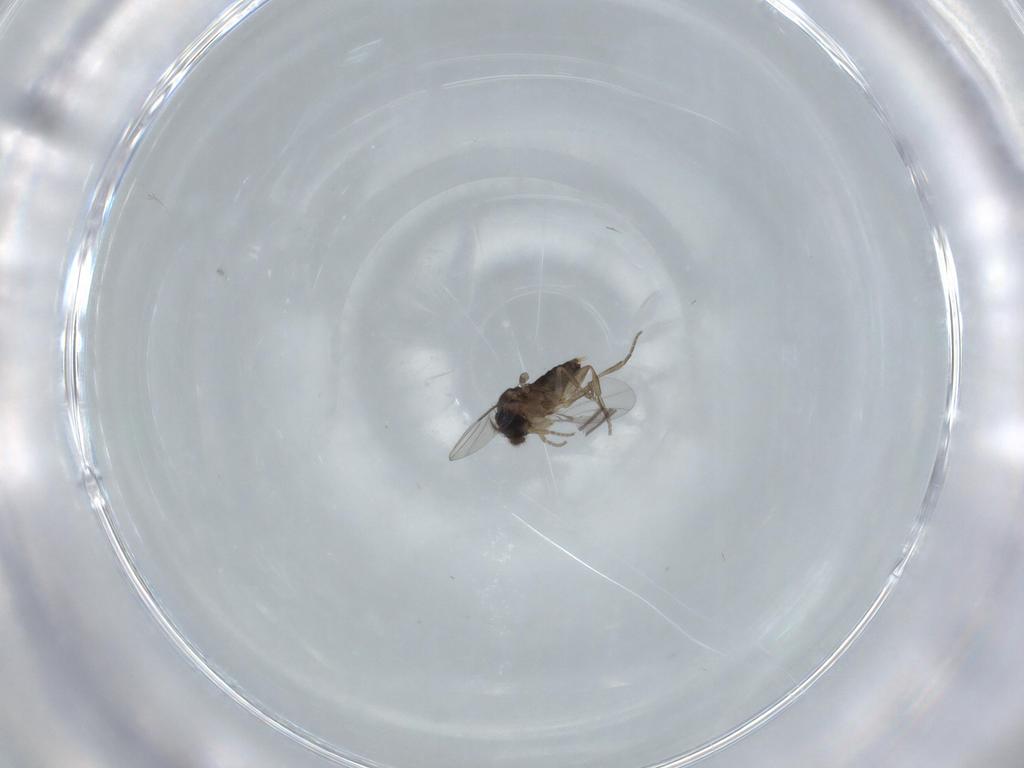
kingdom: Animalia
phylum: Arthropoda
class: Insecta
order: Diptera
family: Phoridae
